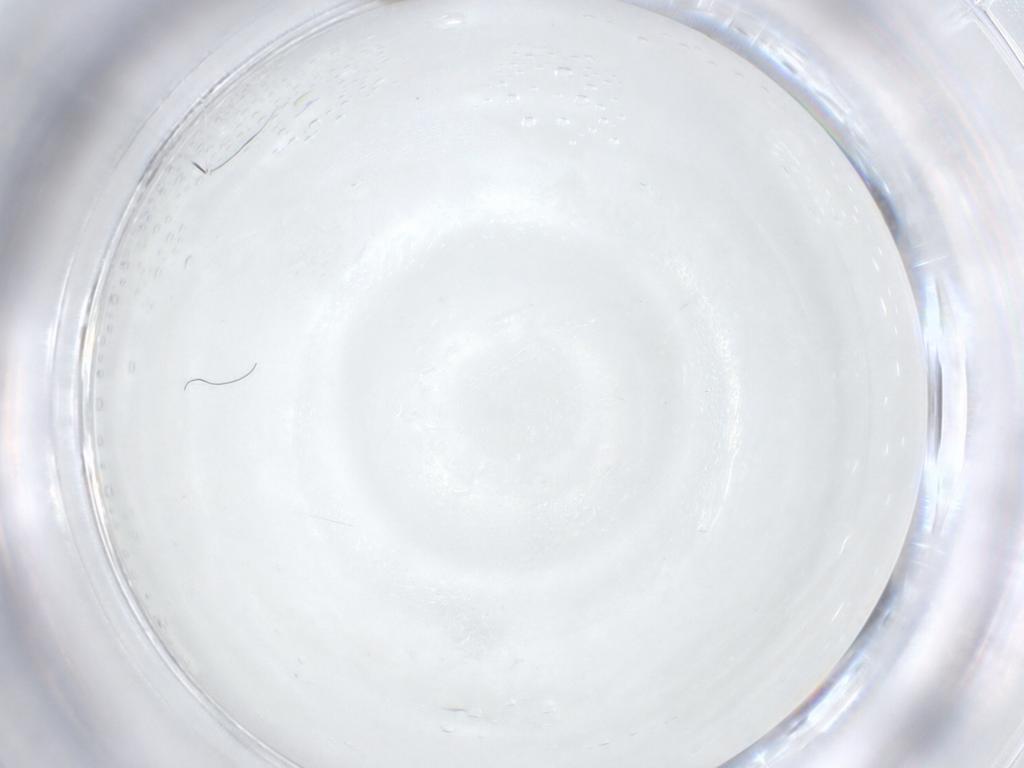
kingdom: Animalia
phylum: Arthropoda
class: Insecta
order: Diptera
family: Cecidomyiidae
